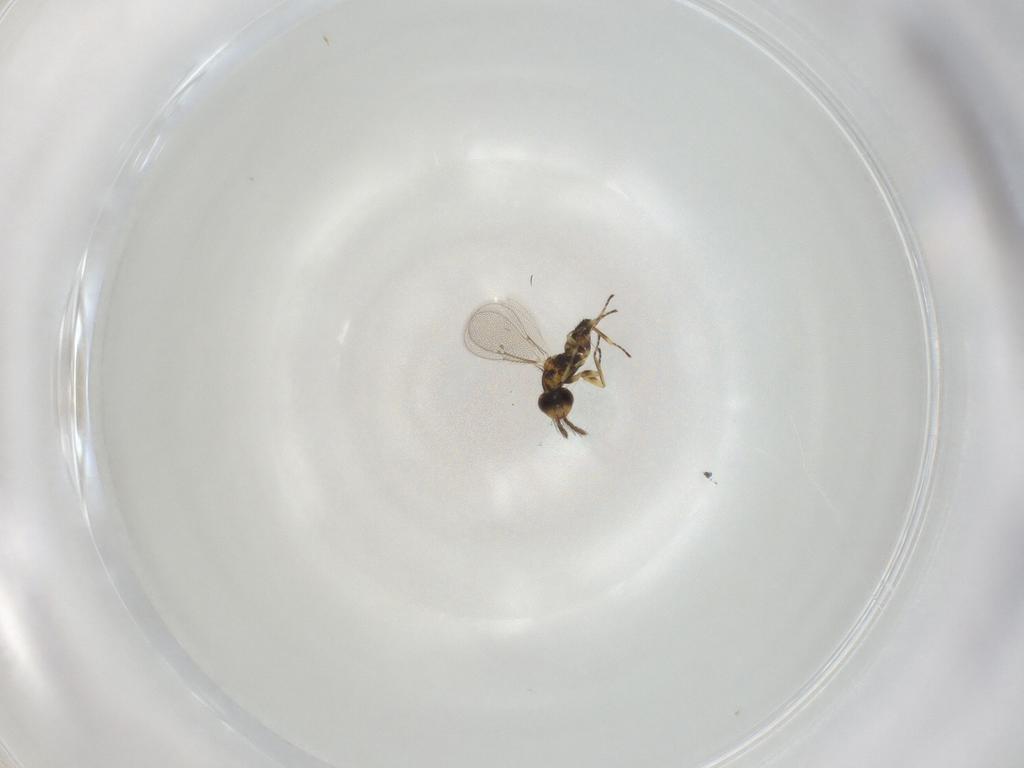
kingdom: Animalia
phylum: Arthropoda
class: Insecta
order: Hymenoptera
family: Eulophidae
